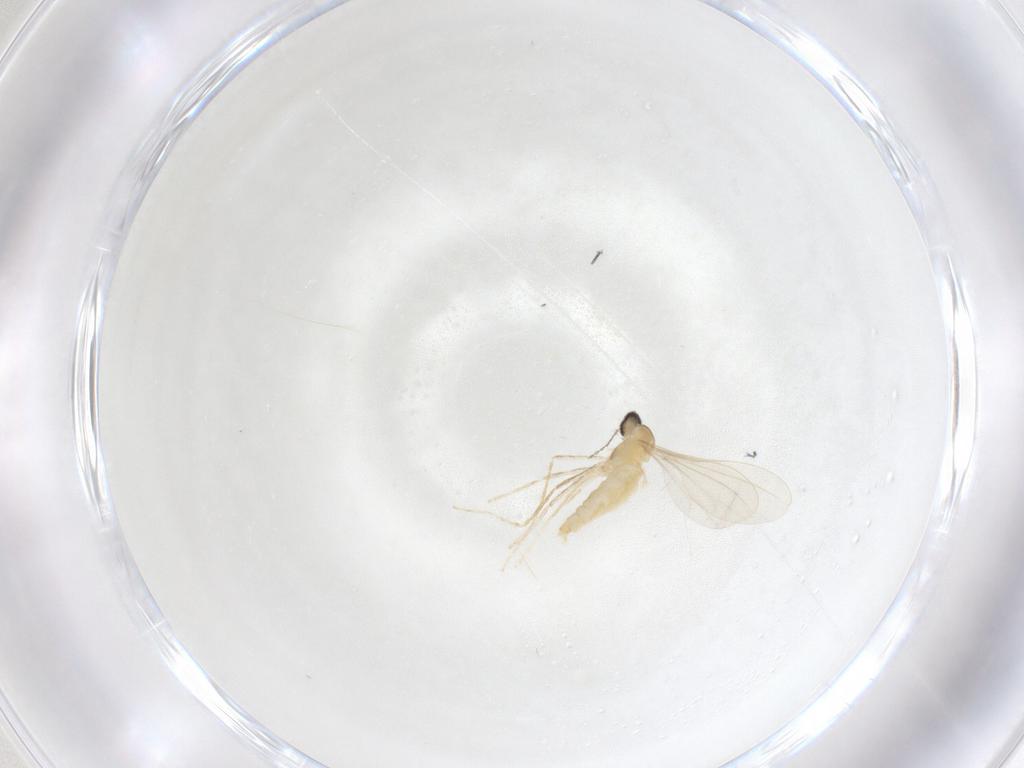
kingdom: Animalia
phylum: Arthropoda
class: Insecta
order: Diptera
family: Cecidomyiidae
